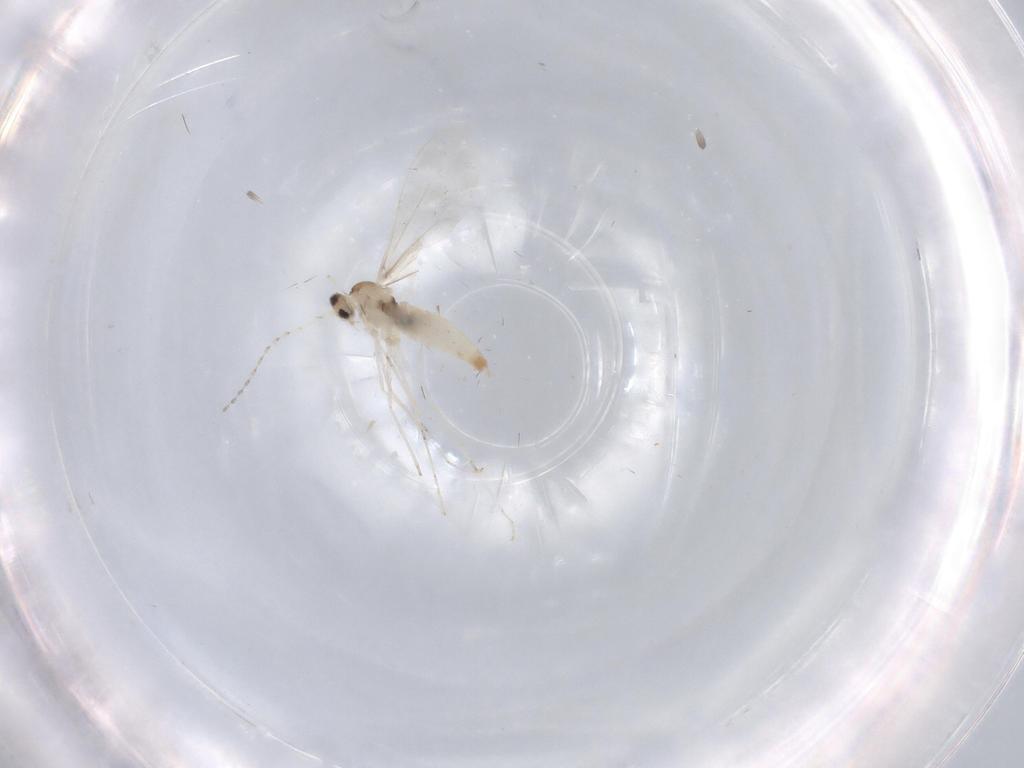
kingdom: Animalia
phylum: Arthropoda
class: Insecta
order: Diptera
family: Cecidomyiidae
